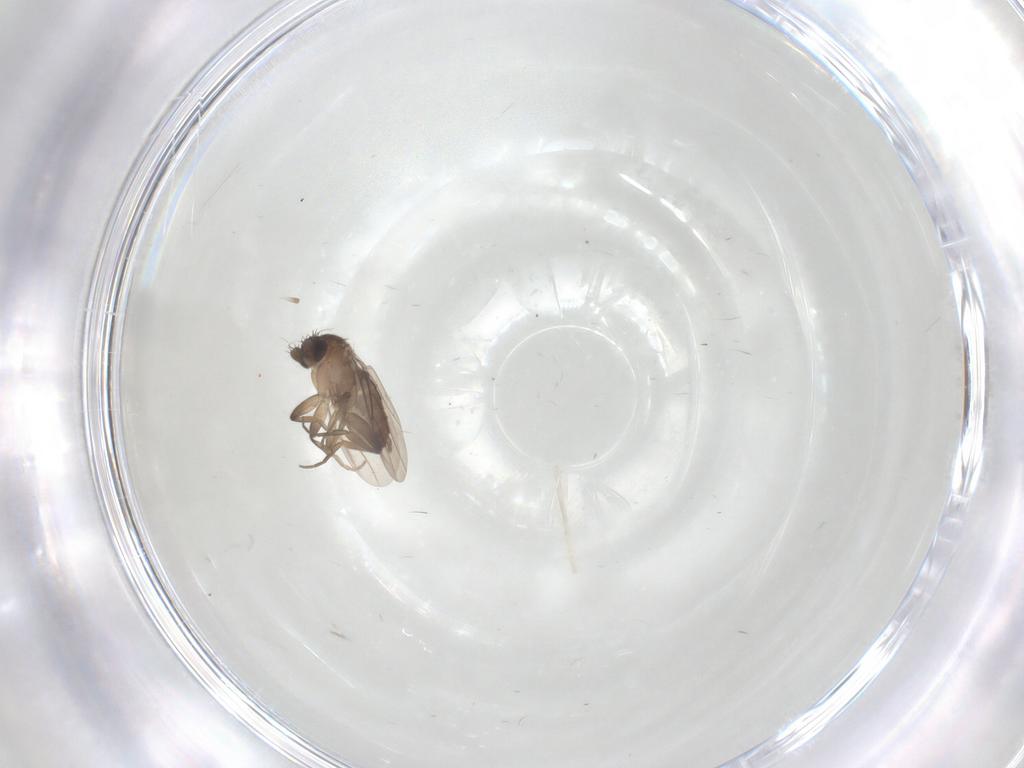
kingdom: Animalia
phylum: Arthropoda
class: Insecta
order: Diptera
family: Phoridae
